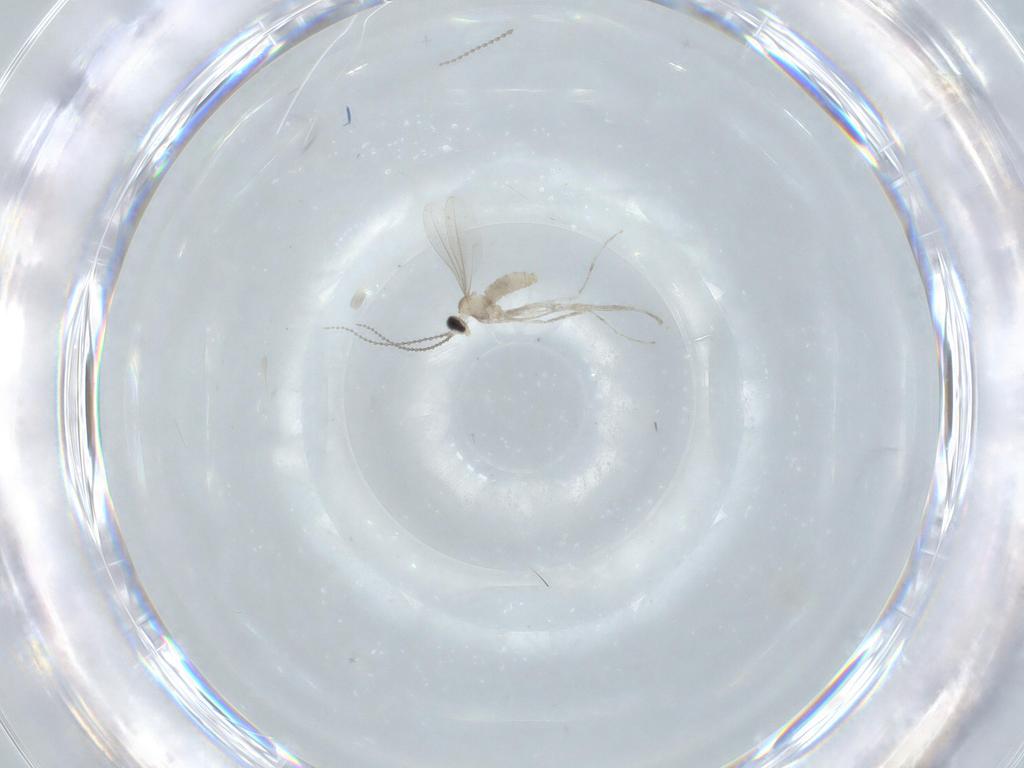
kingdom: Animalia
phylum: Arthropoda
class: Insecta
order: Diptera
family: Cecidomyiidae
